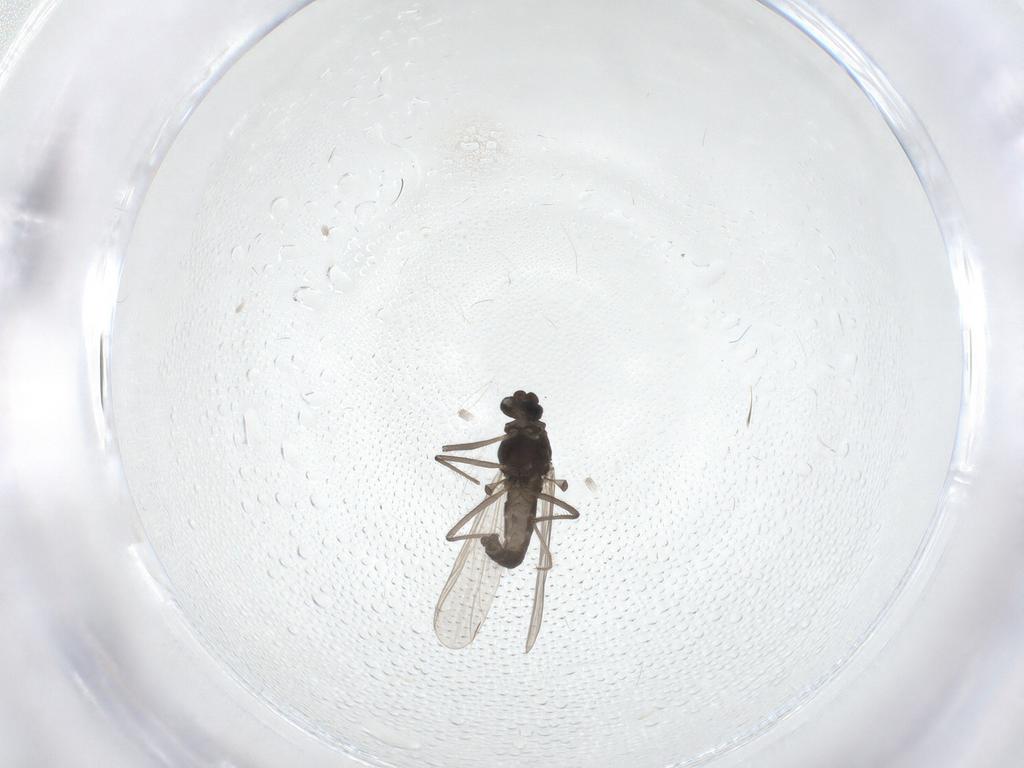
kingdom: Animalia
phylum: Arthropoda
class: Insecta
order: Diptera
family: Chironomidae
